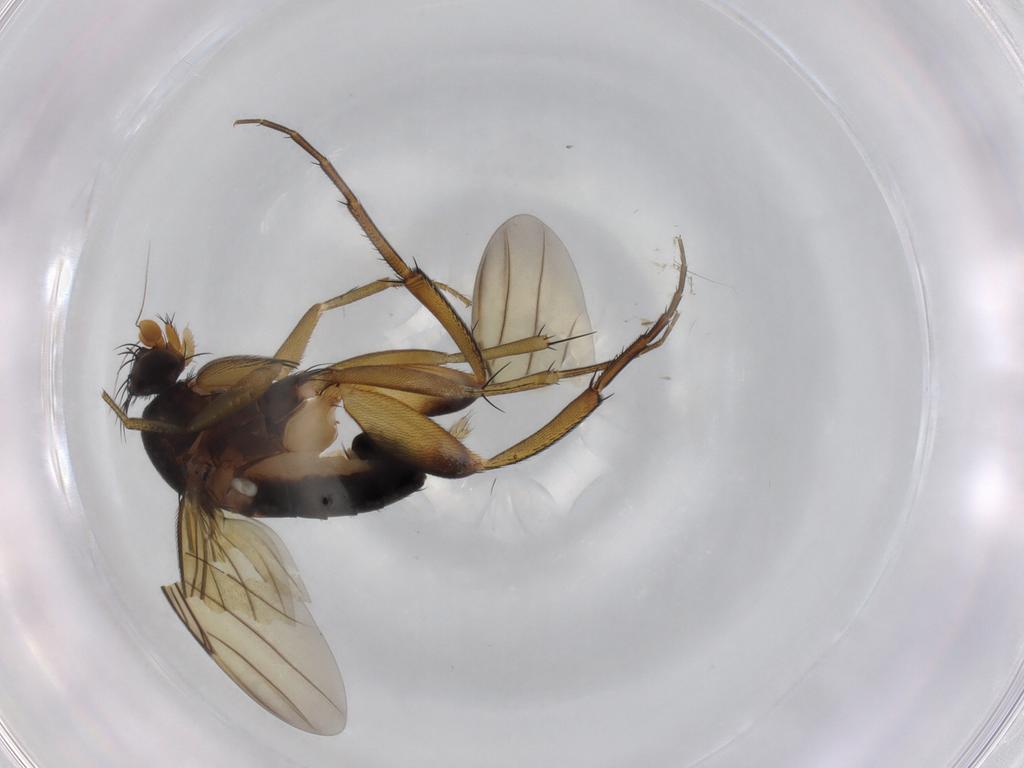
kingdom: Animalia
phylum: Arthropoda
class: Insecta
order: Diptera
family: Phoridae
